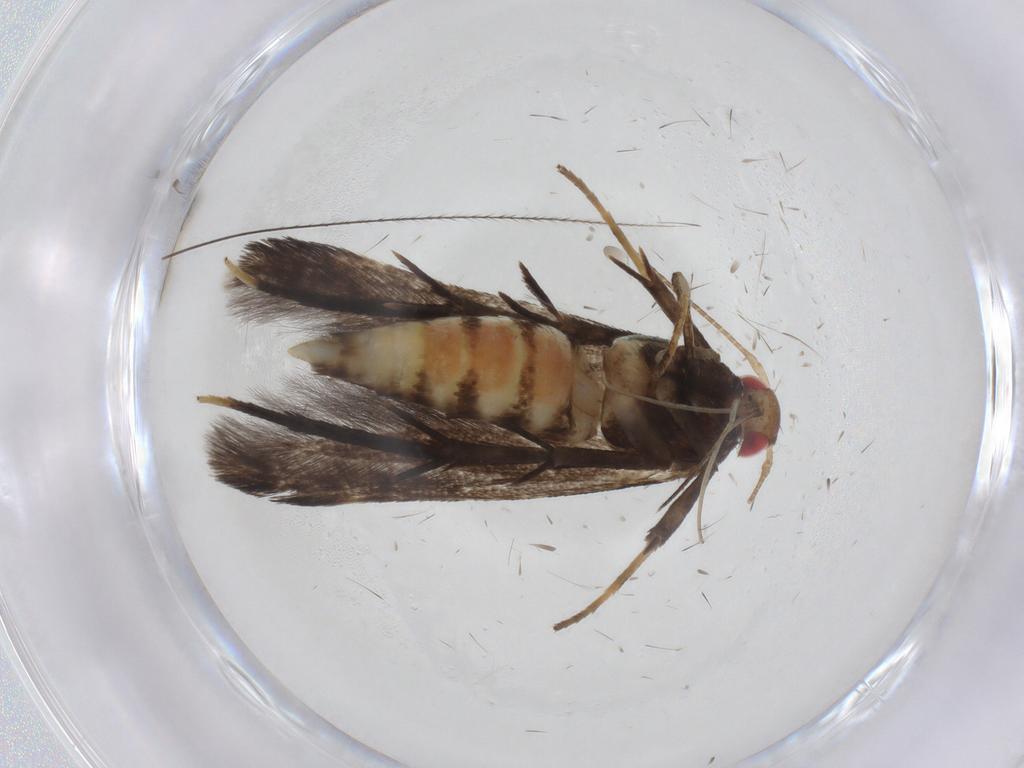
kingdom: Animalia
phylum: Arthropoda
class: Insecta
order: Lepidoptera
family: Gelechiidae
